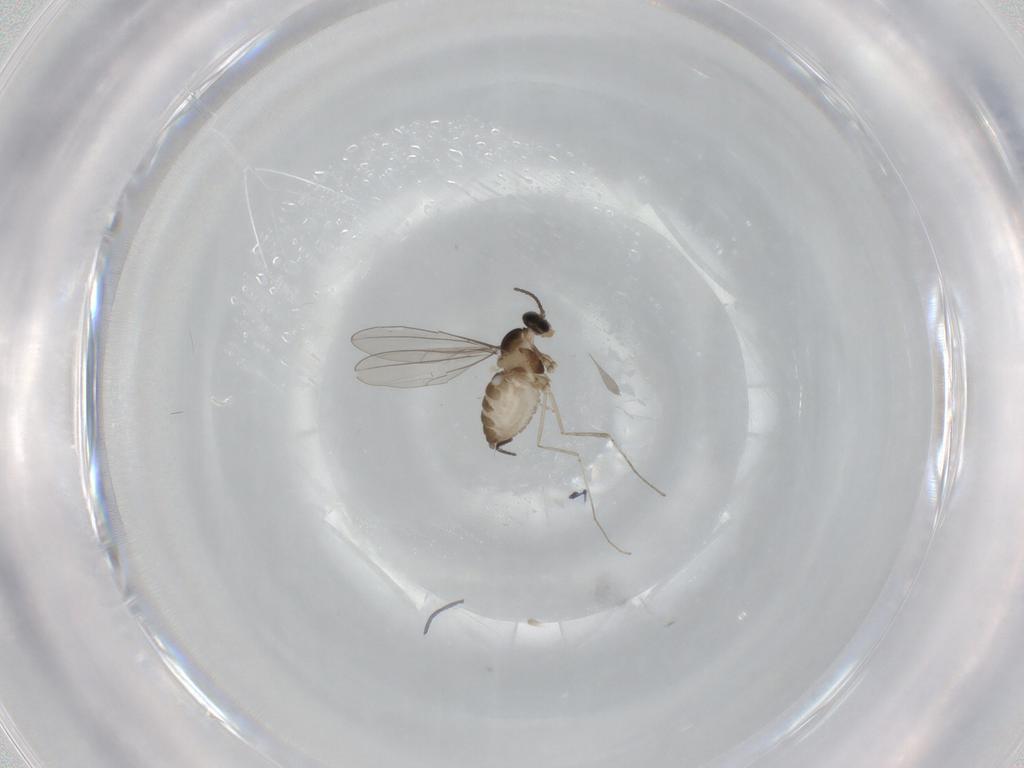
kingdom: Animalia
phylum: Arthropoda
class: Insecta
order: Diptera
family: Cecidomyiidae
